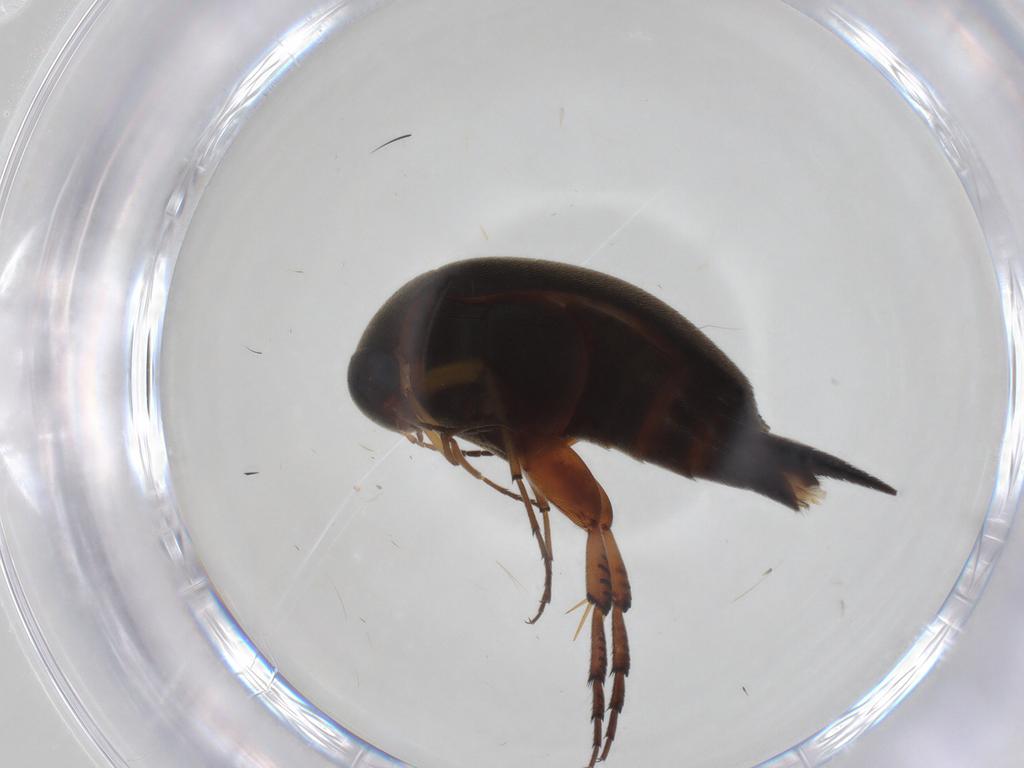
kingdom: Animalia
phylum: Arthropoda
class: Insecta
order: Coleoptera
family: Mordellidae
